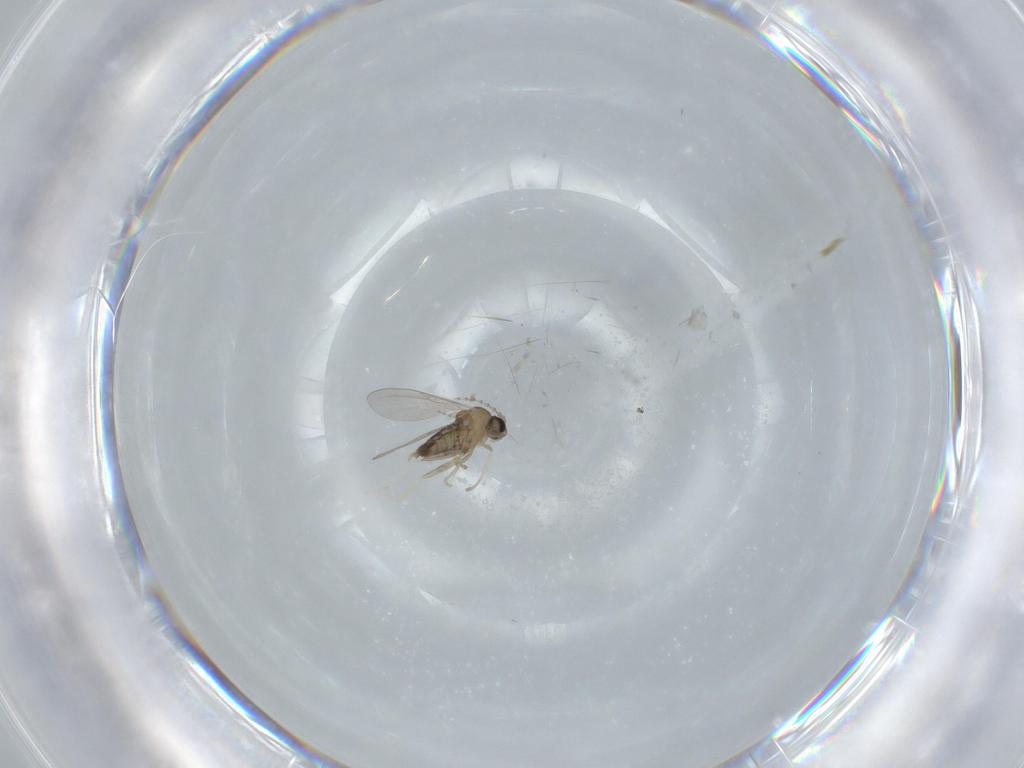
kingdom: Animalia
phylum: Arthropoda
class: Insecta
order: Diptera
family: Cecidomyiidae
